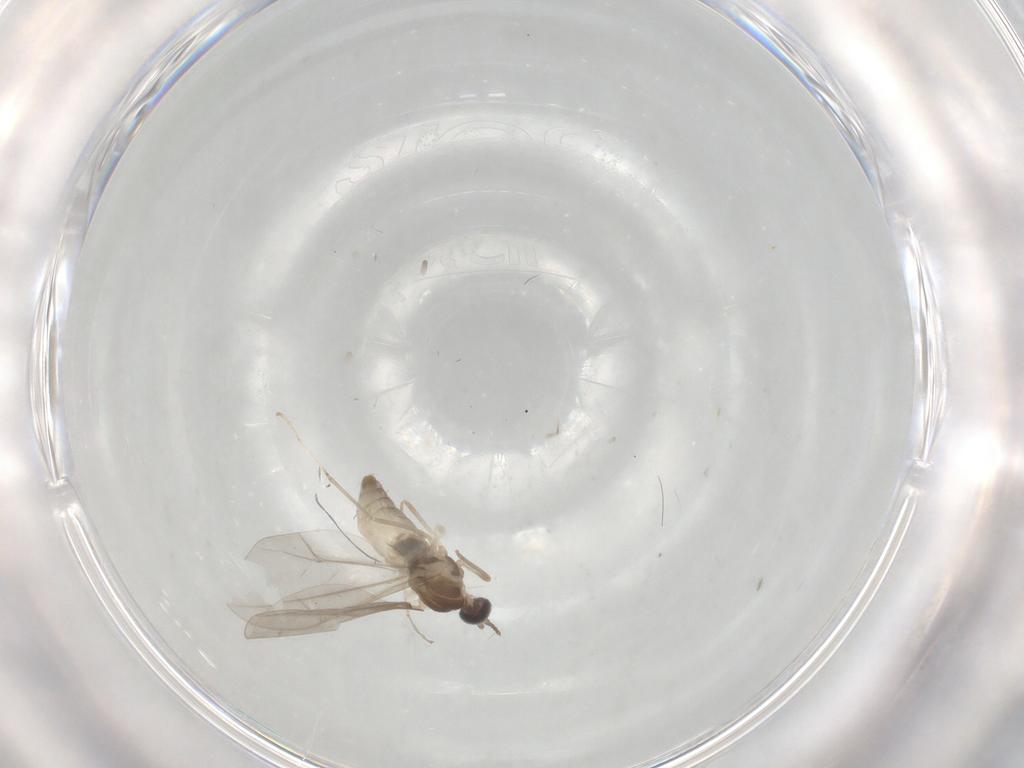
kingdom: Animalia
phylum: Arthropoda
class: Insecta
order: Diptera
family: Cecidomyiidae
